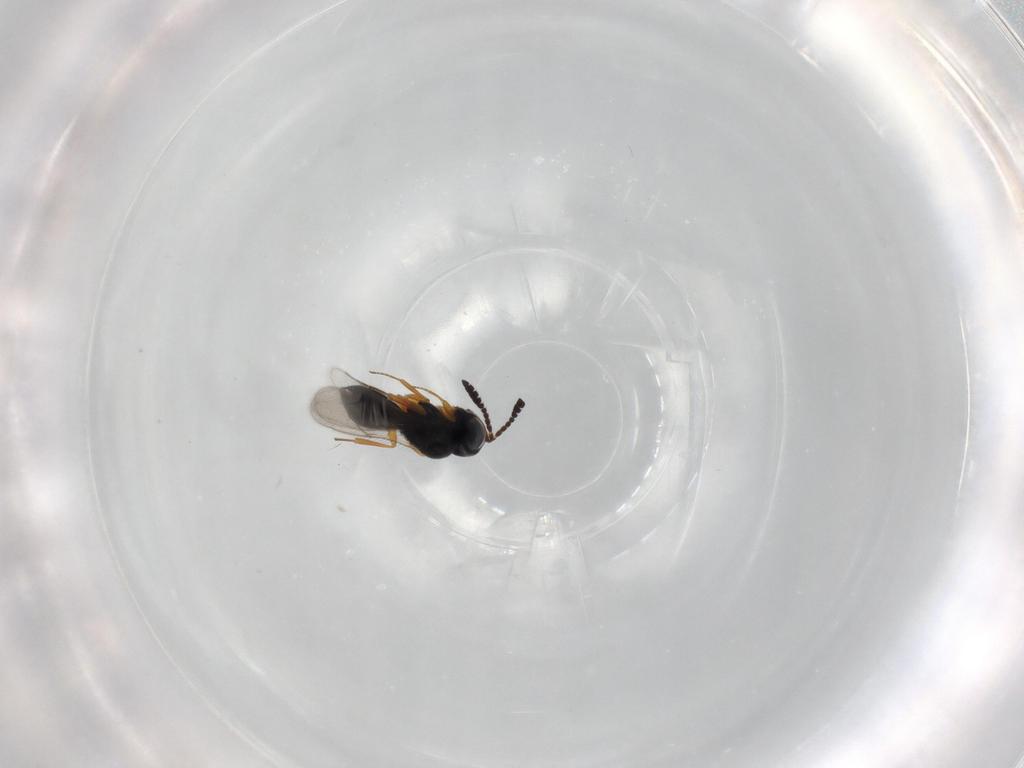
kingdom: Animalia
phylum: Arthropoda
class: Insecta
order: Hymenoptera
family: Scelionidae
